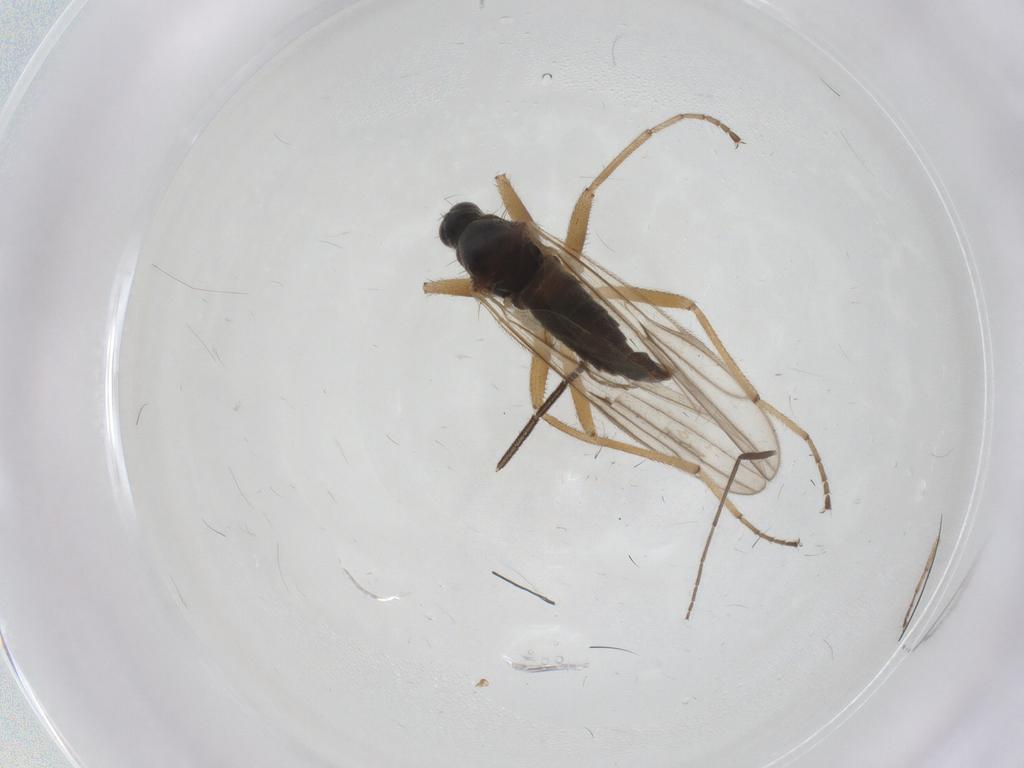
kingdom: Animalia
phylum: Arthropoda
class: Insecta
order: Diptera
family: Hybotidae
